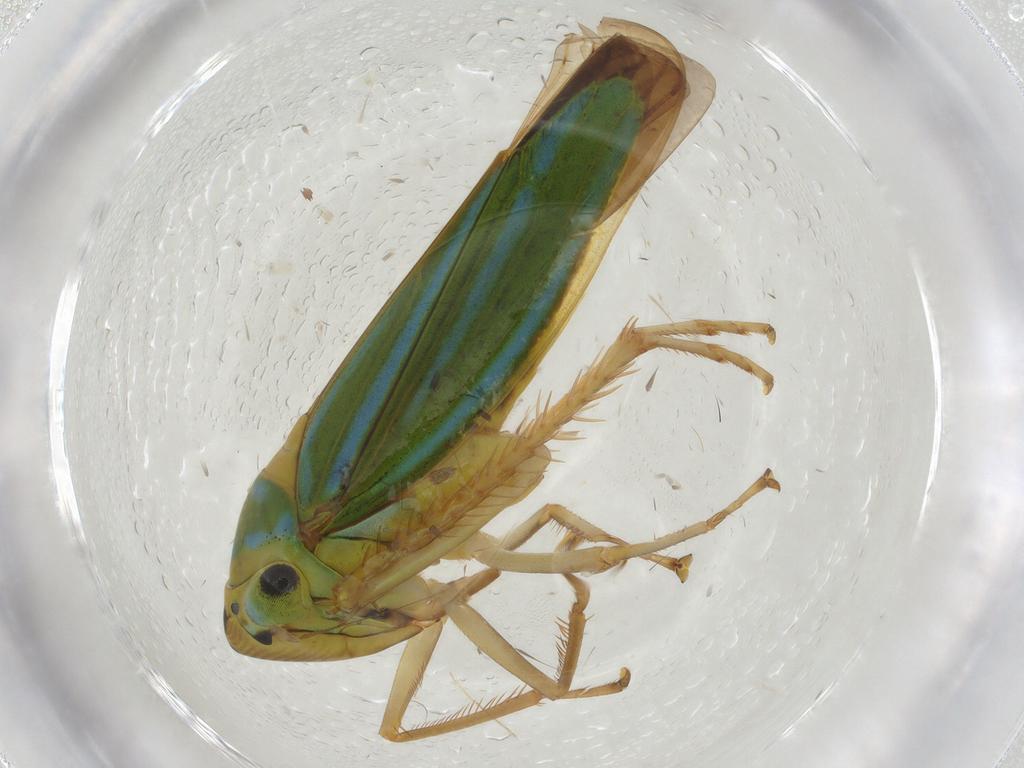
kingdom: Animalia
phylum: Arthropoda
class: Insecta
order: Hemiptera
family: Cicadellidae
